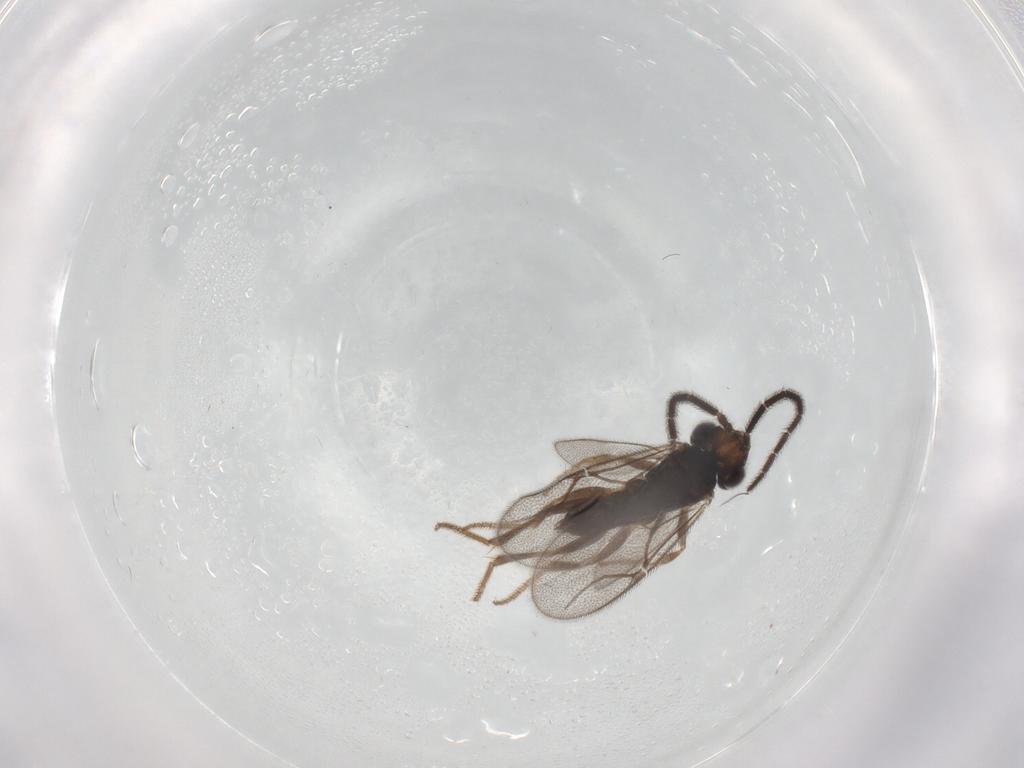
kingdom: Animalia
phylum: Arthropoda
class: Insecta
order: Hymenoptera
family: Dryinidae
